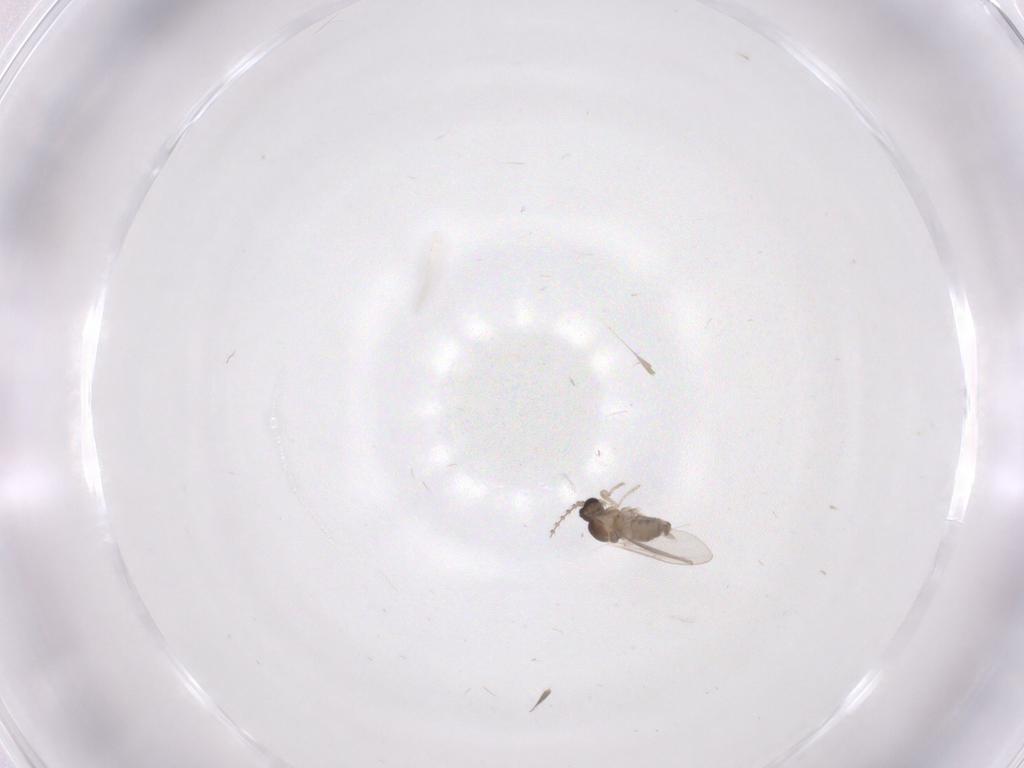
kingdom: Animalia
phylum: Arthropoda
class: Insecta
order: Diptera
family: Cecidomyiidae
